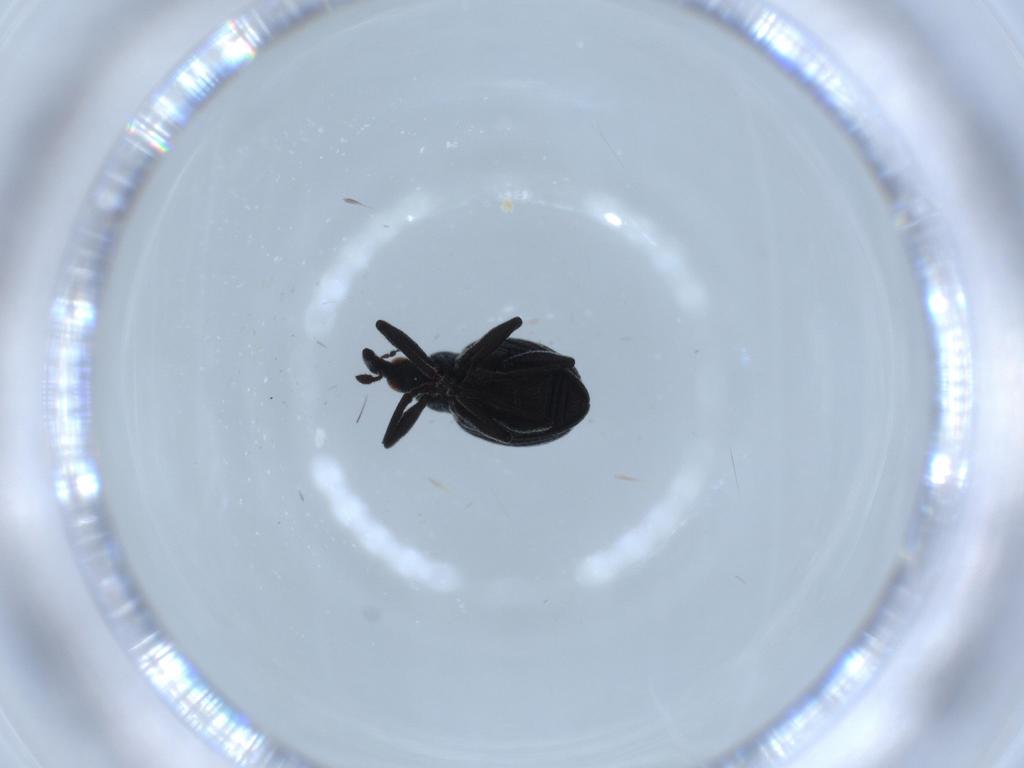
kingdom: Animalia
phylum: Arthropoda
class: Insecta
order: Coleoptera
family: Brentidae
